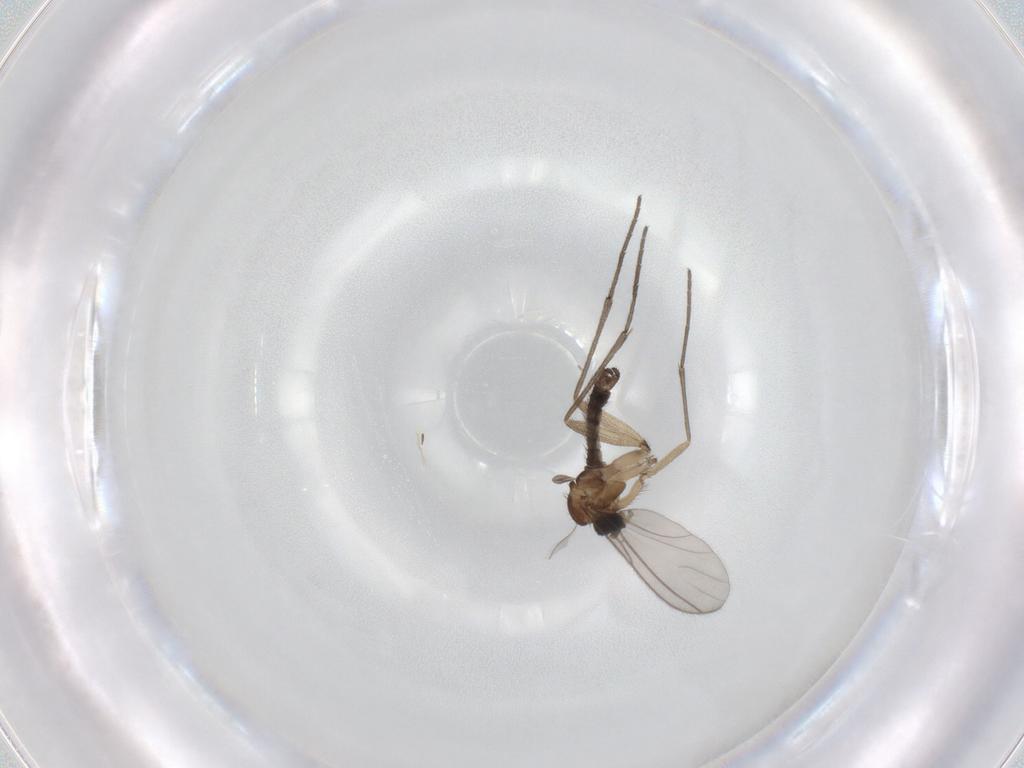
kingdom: Animalia
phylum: Arthropoda
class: Insecta
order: Diptera
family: Sciaridae
